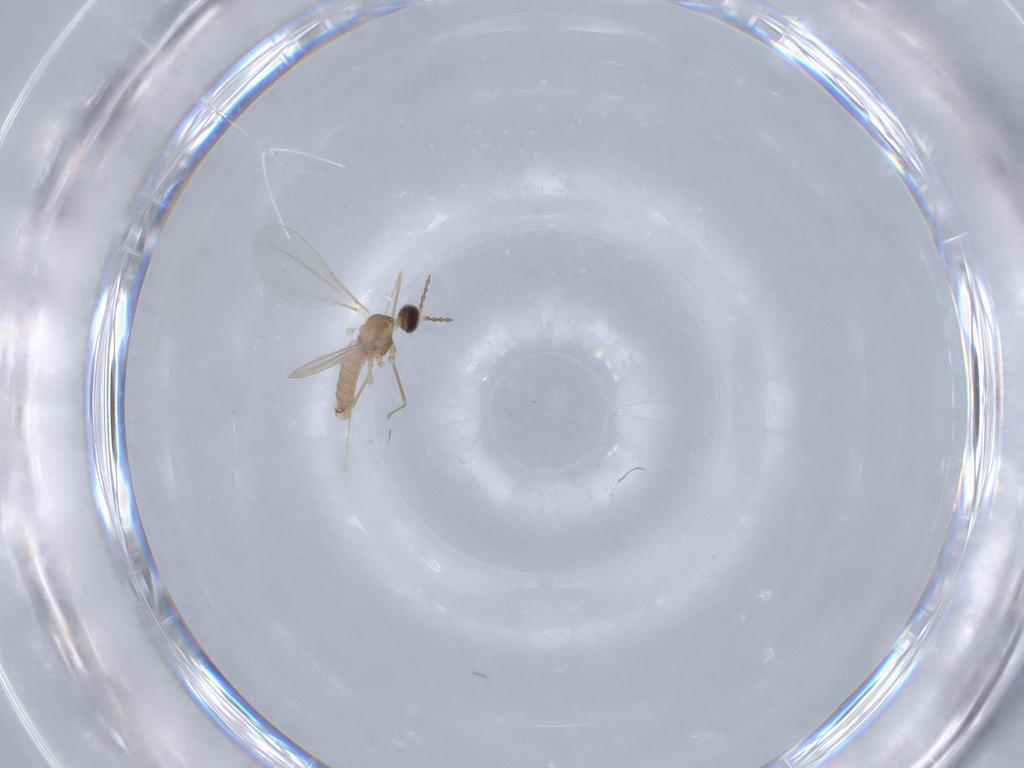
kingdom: Animalia
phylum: Arthropoda
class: Insecta
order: Diptera
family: Cecidomyiidae
